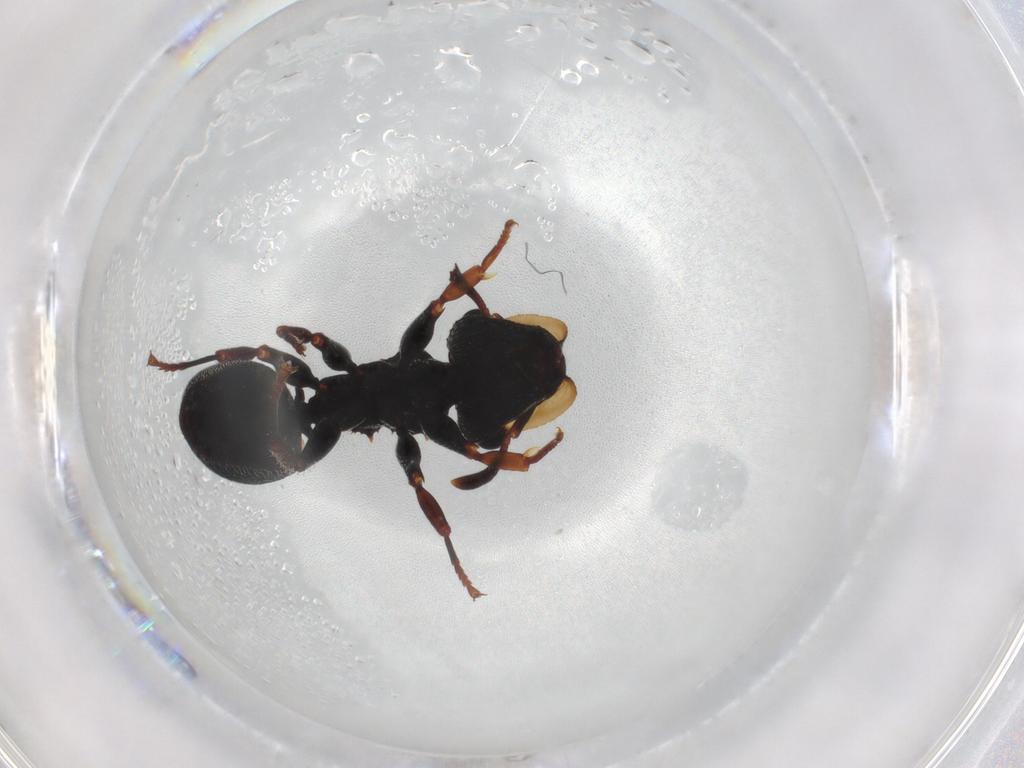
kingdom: Animalia
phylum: Arthropoda
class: Insecta
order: Hymenoptera
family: Formicidae
